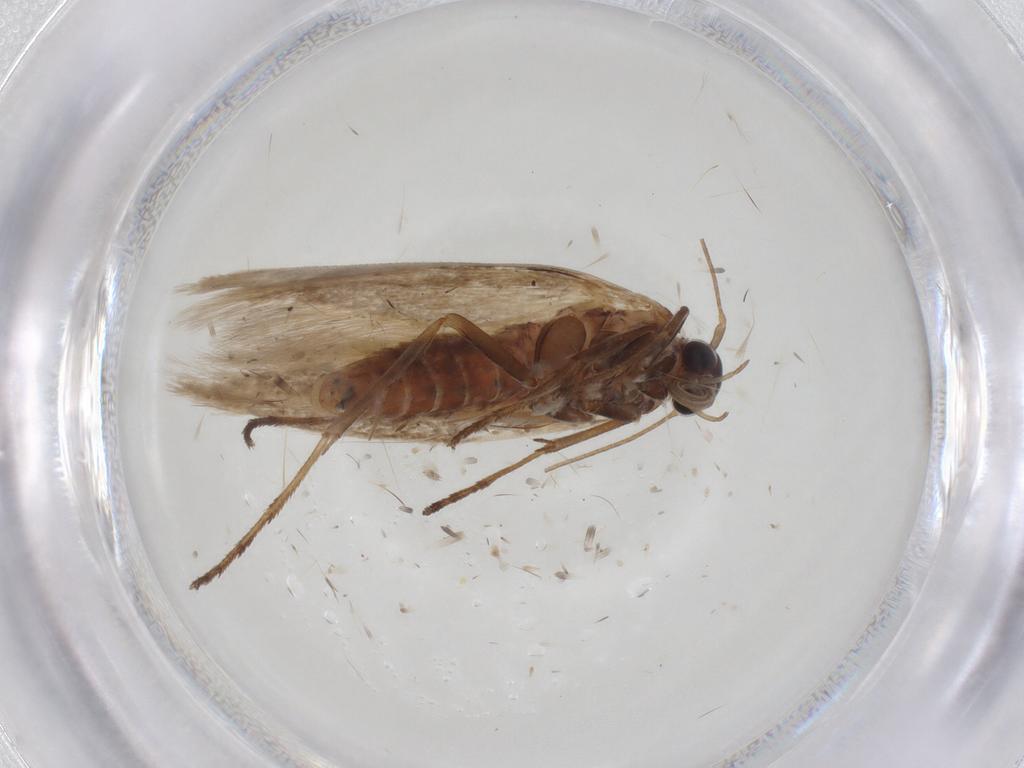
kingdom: Animalia
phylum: Arthropoda
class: Insecta
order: Lepidoptera
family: Scythrididae
